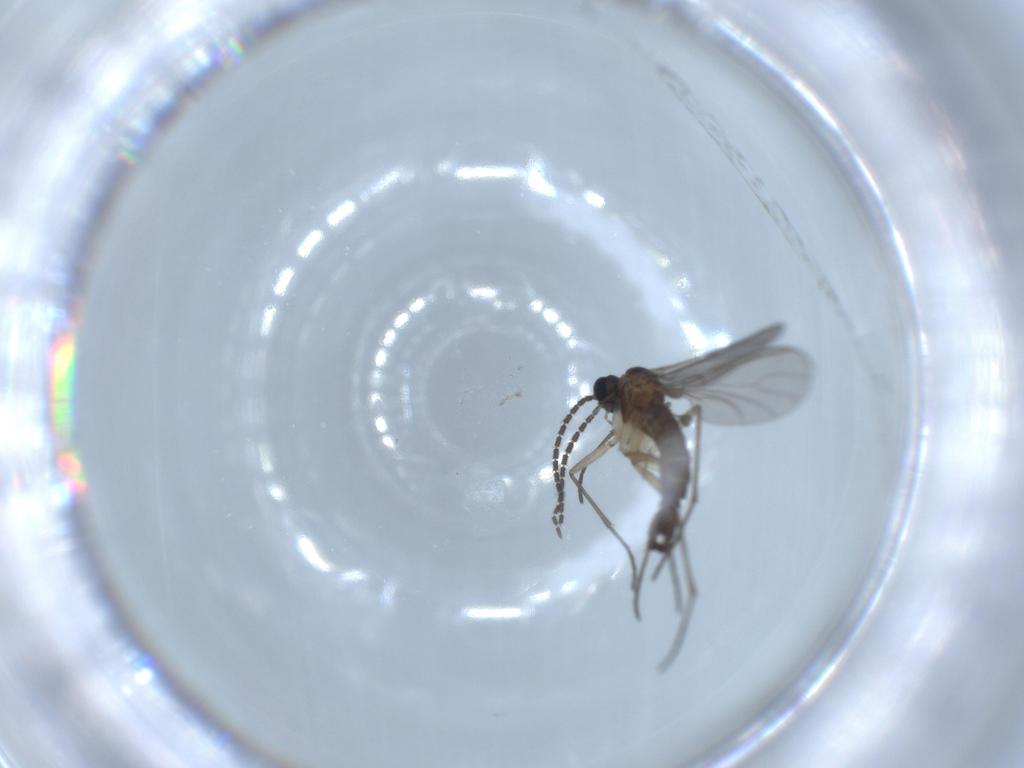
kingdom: Animalia
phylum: Arthropoda
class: Insecta
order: Diptera
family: Sciaridae
